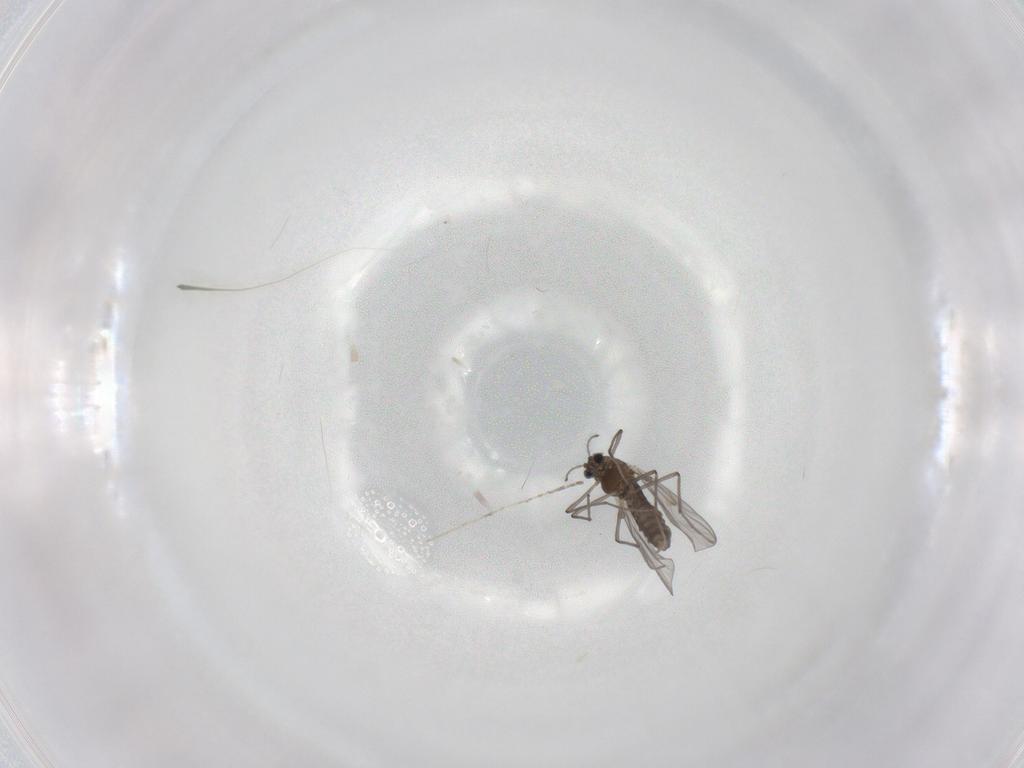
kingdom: Animalia
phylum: Arthropoda
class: Insecta
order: Diptera
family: Chironomidae
